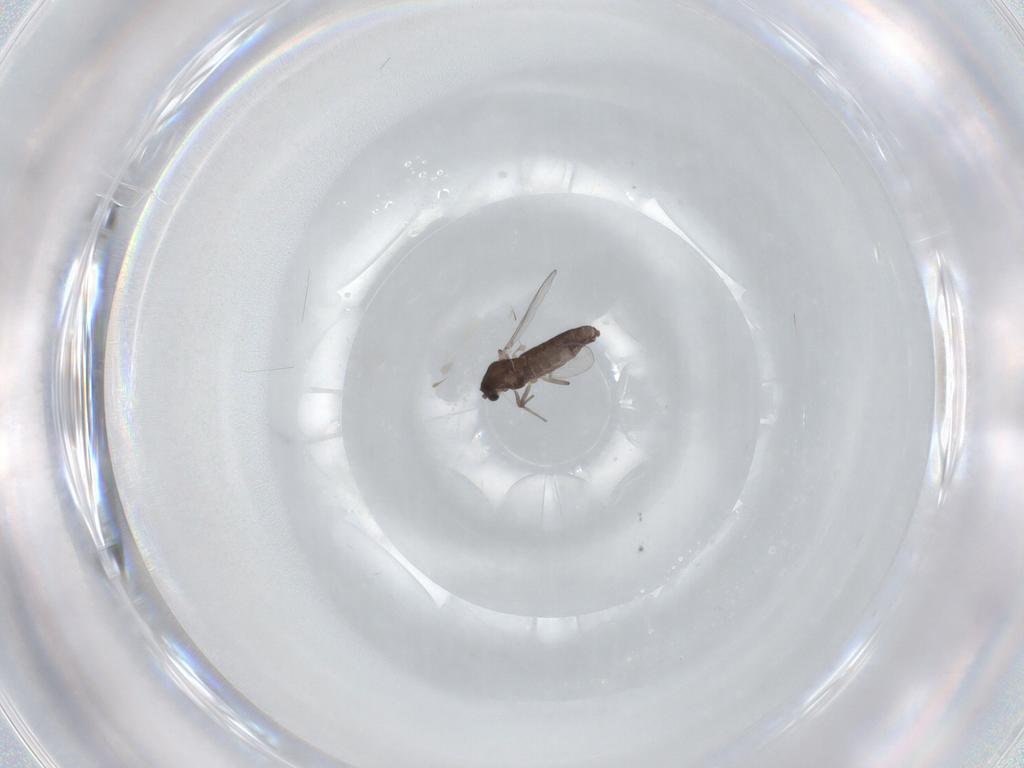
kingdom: Animalia
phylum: Arthropoda
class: Insecta
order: Diptera
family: Chironomidae
